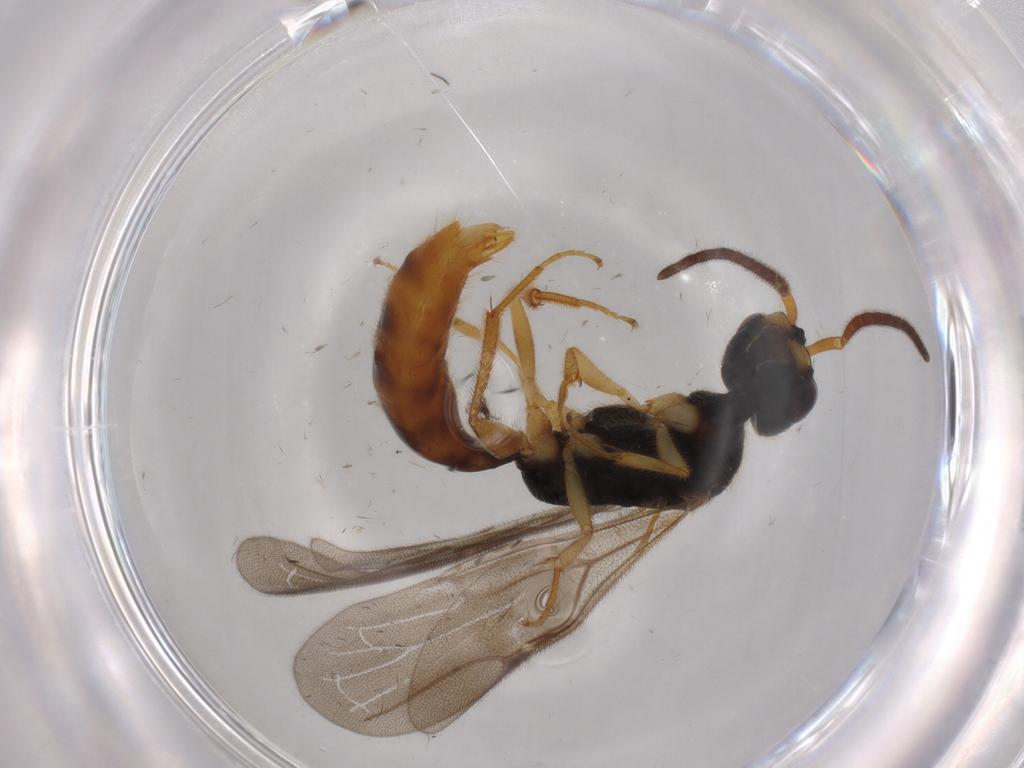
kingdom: Animalia
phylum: Arthropoda
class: Insecta
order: Hymenoptera
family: Bethylidae
